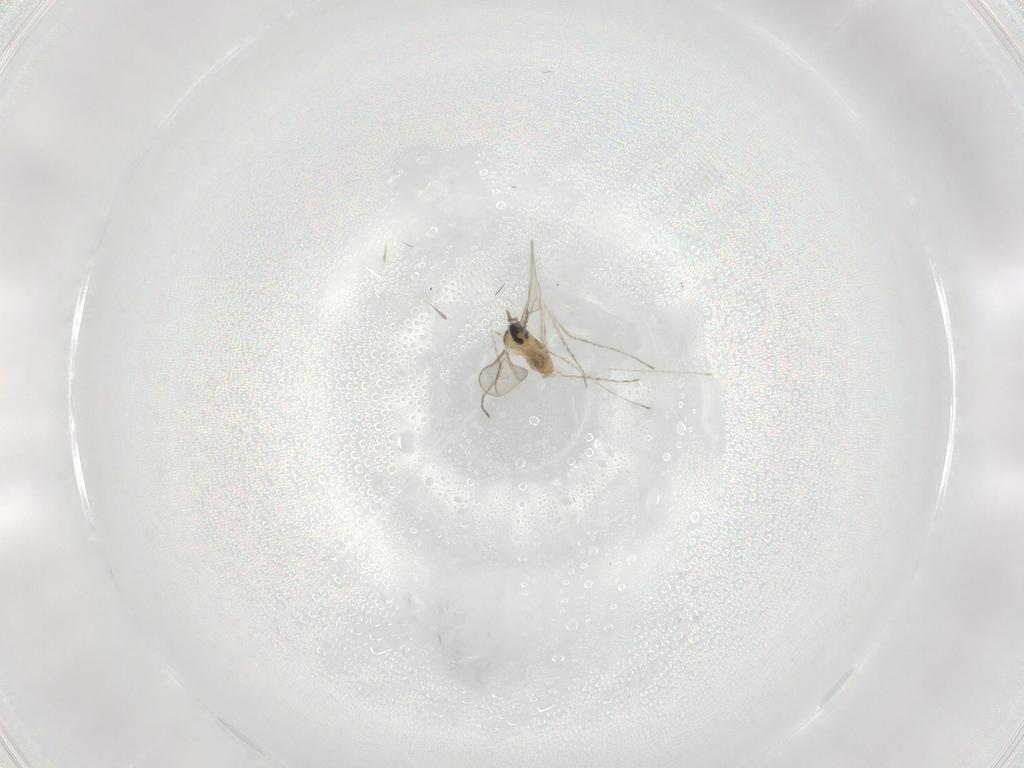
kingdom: Animalia
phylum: Arthropoda
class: Insecta
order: Diptera
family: Cecidomyiidae
